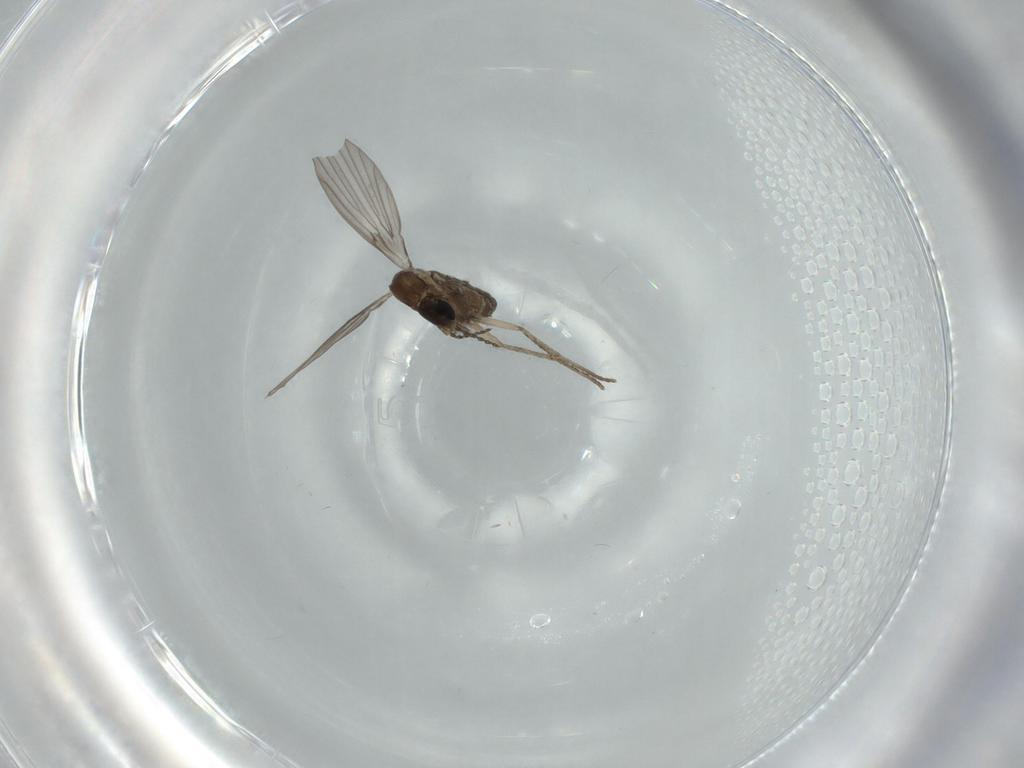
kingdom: Animalia
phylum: Arthropoda
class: Insecta
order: Diptera
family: Psychodidae
